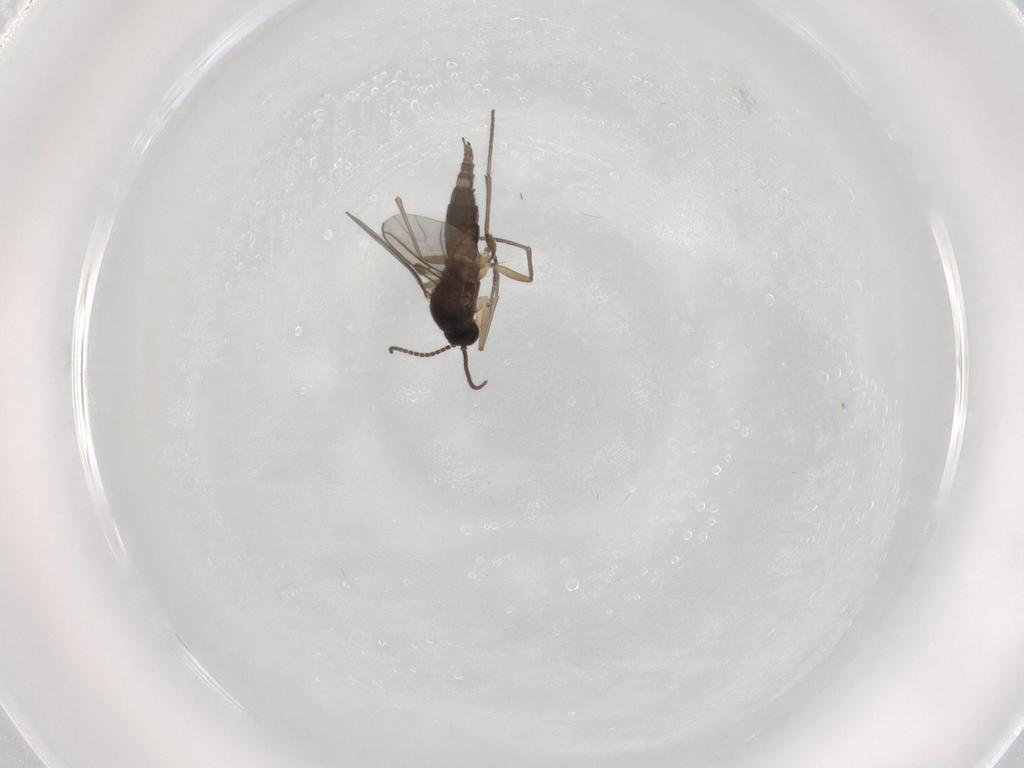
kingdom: Animalia
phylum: Arthropoda
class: Insecta
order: Diptera
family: Sciaridae
